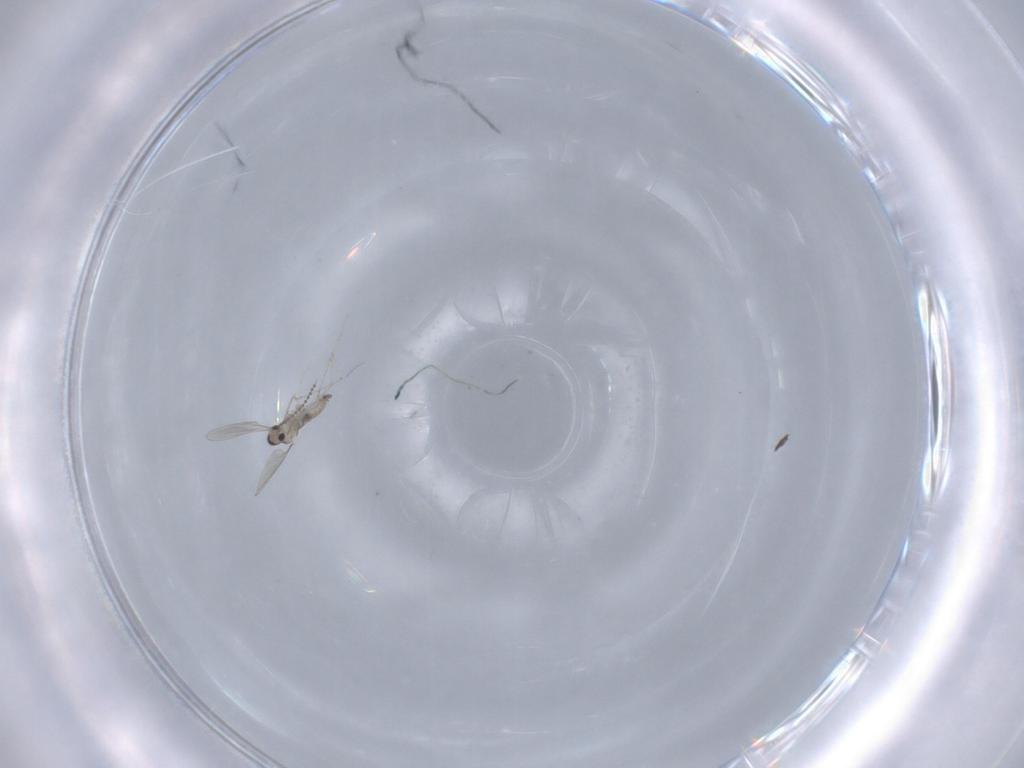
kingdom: Animalia
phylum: Arthropoda
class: Insecta
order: Diptera
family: Cecidomyiidae
